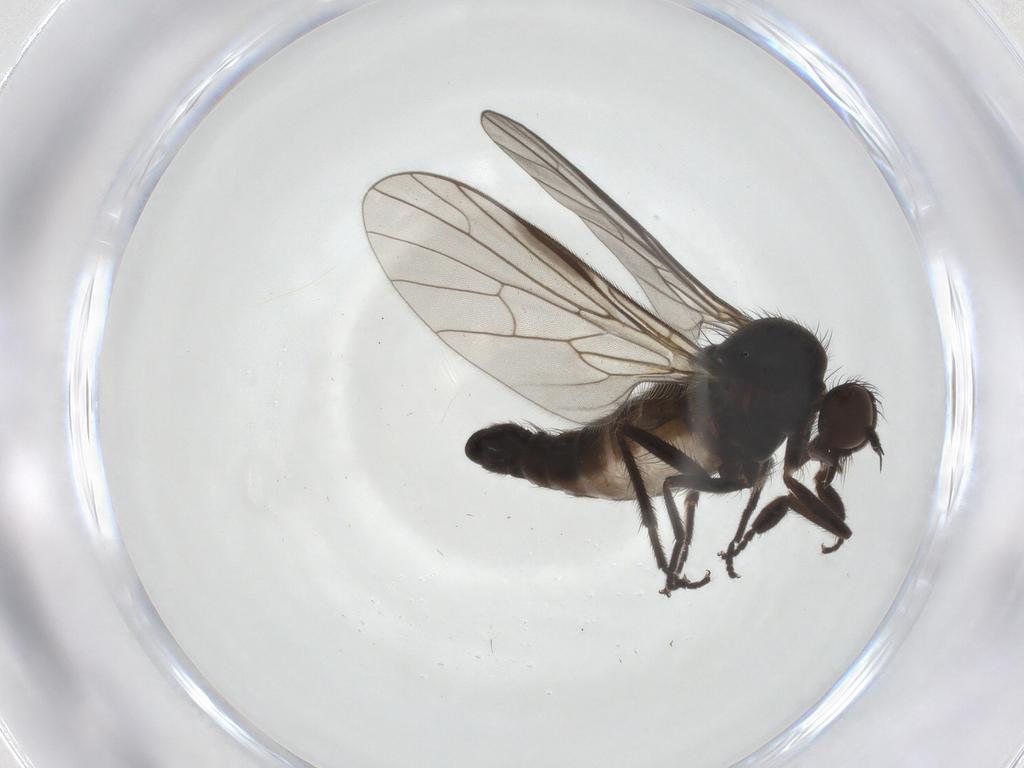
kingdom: Animalia
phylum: Arthropoda
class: Insecta
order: Diptera
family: Empididae
